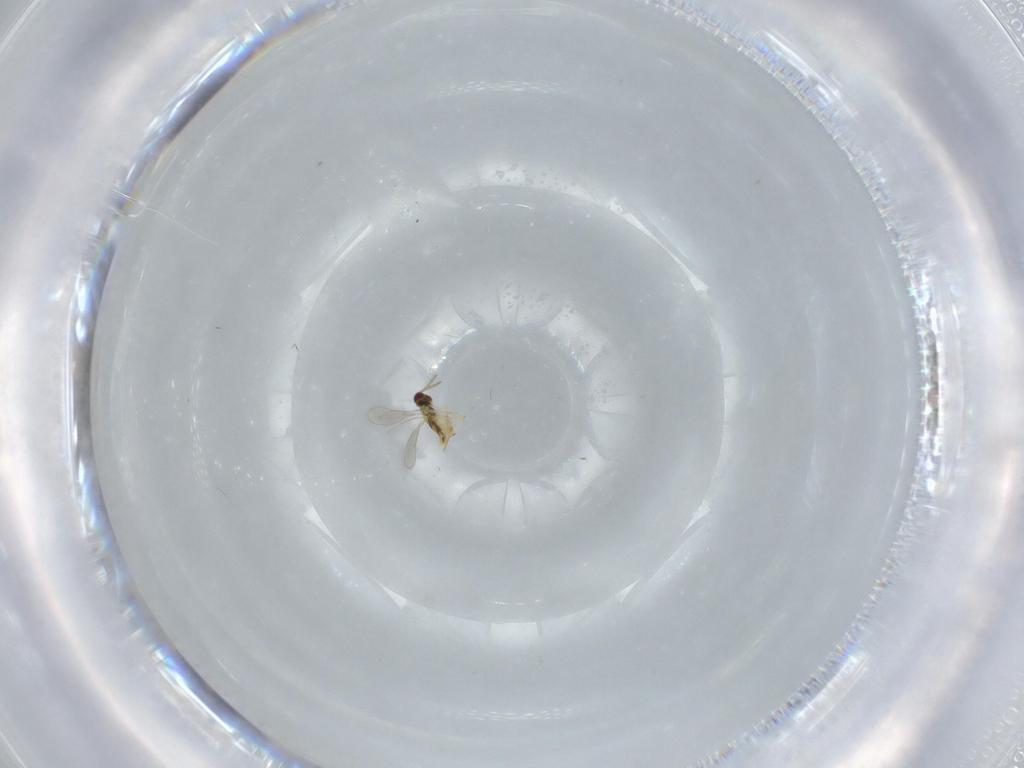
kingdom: Animalia
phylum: Arthropoda
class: Insecta
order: Hymenoptera
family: Aphelinidae
